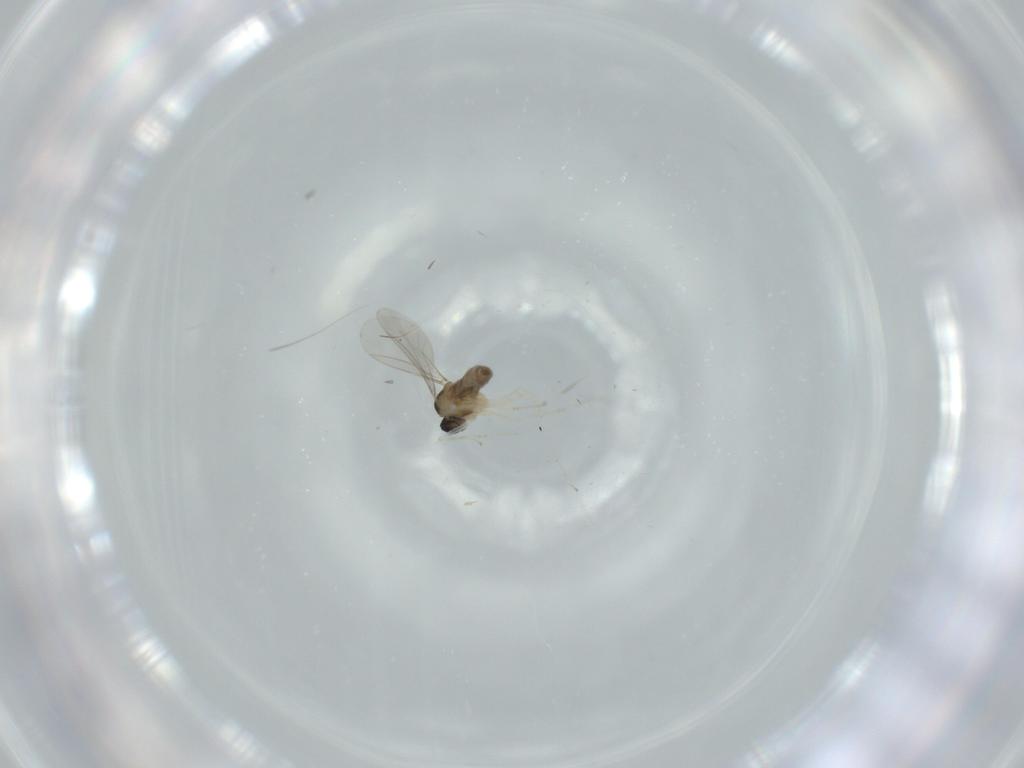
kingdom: Animalia
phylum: Arthropoda
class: Insecta
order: Diptera
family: Cecidomyiidae
